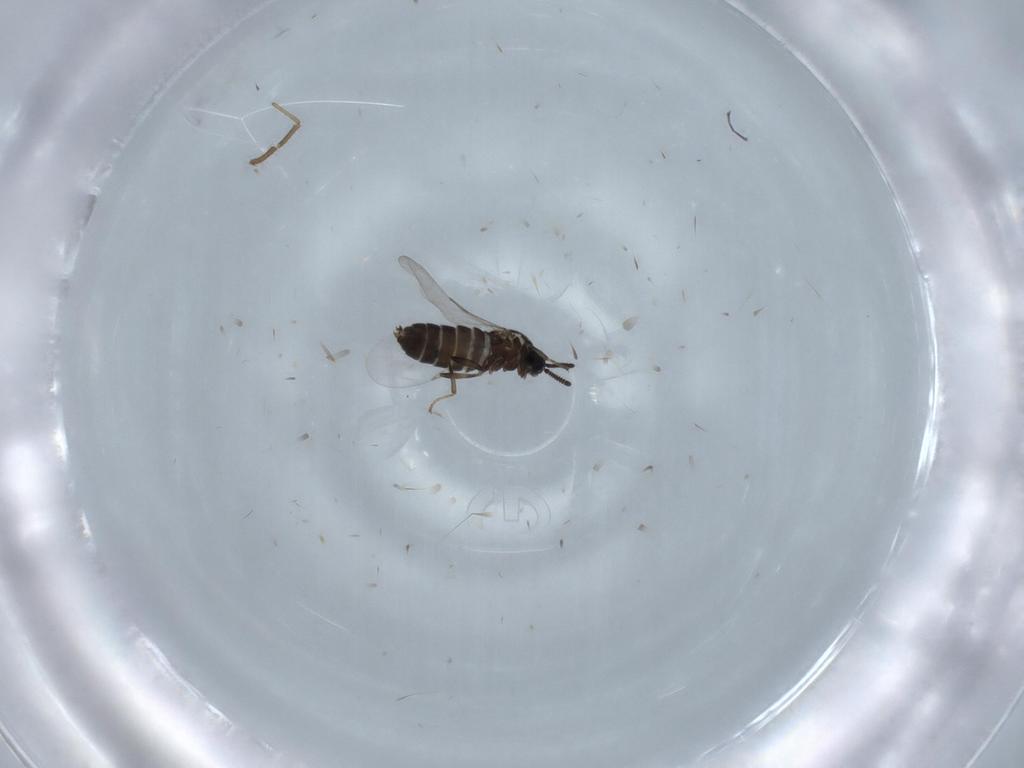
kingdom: Animalia
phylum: Arthropoda
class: Insecta
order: Diptera
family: Scatopsidae
